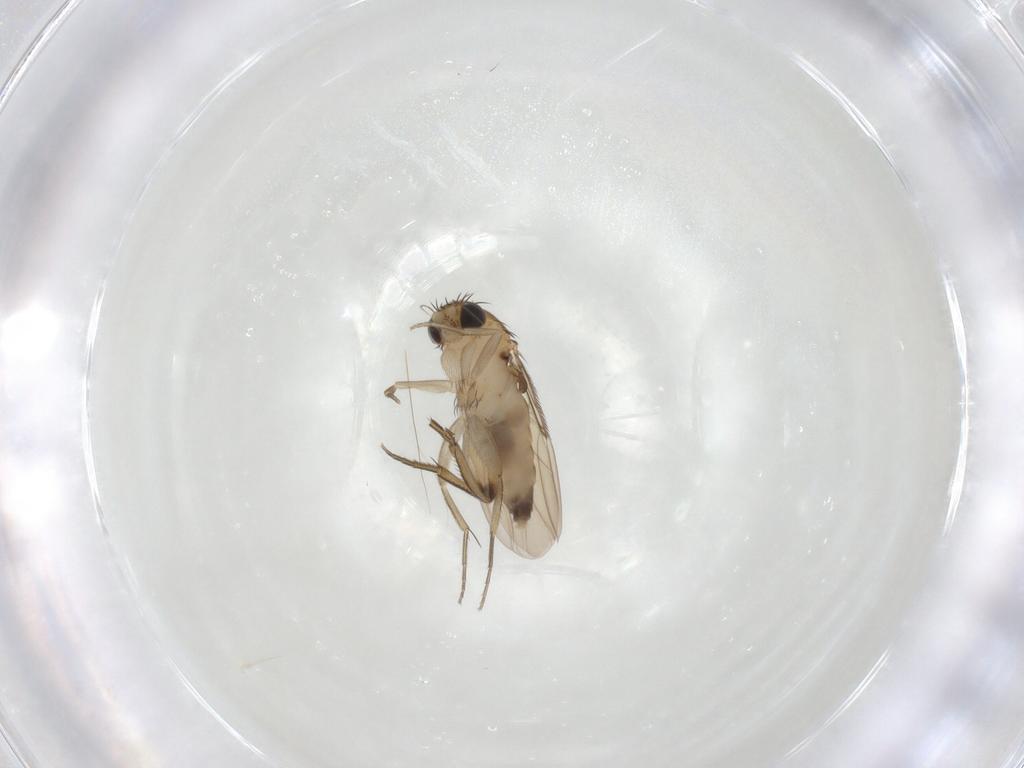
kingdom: Animalia
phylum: Arthropoda
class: Insecta
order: Diptera
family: Phoridae
